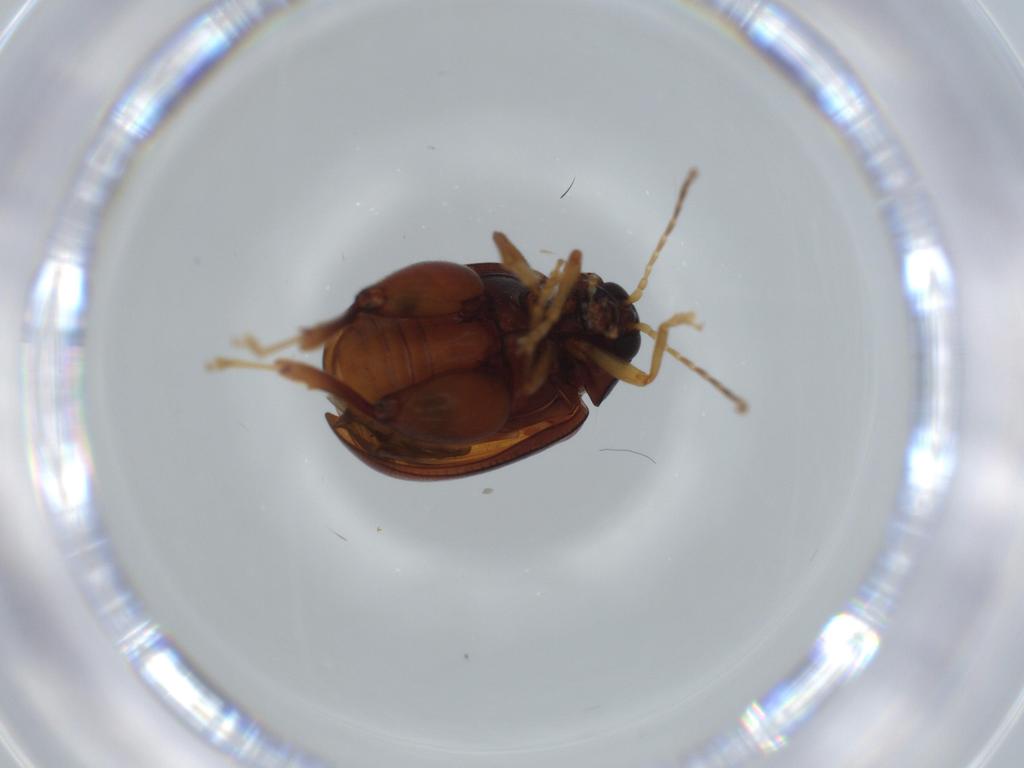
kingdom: Animalia
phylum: Arthropoda
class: Insecta
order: Coleoptera
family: Chrysomelidae
